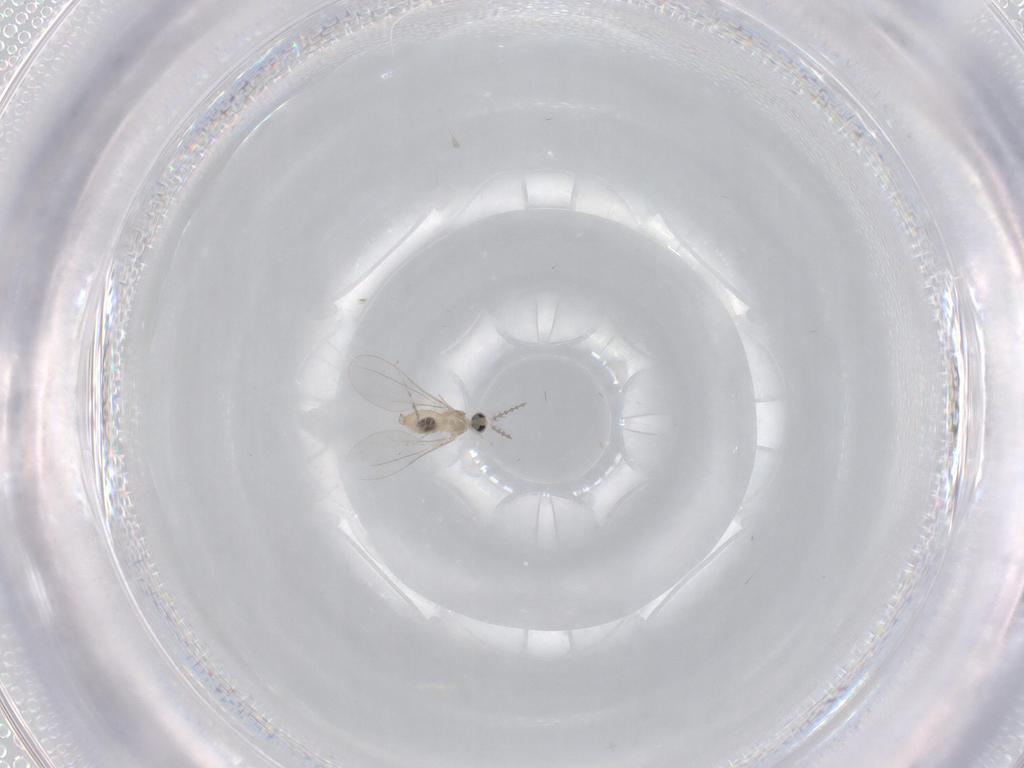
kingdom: Animalia
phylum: Arthropoda
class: Insecta
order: Diptera
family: Cecidomyiidae
